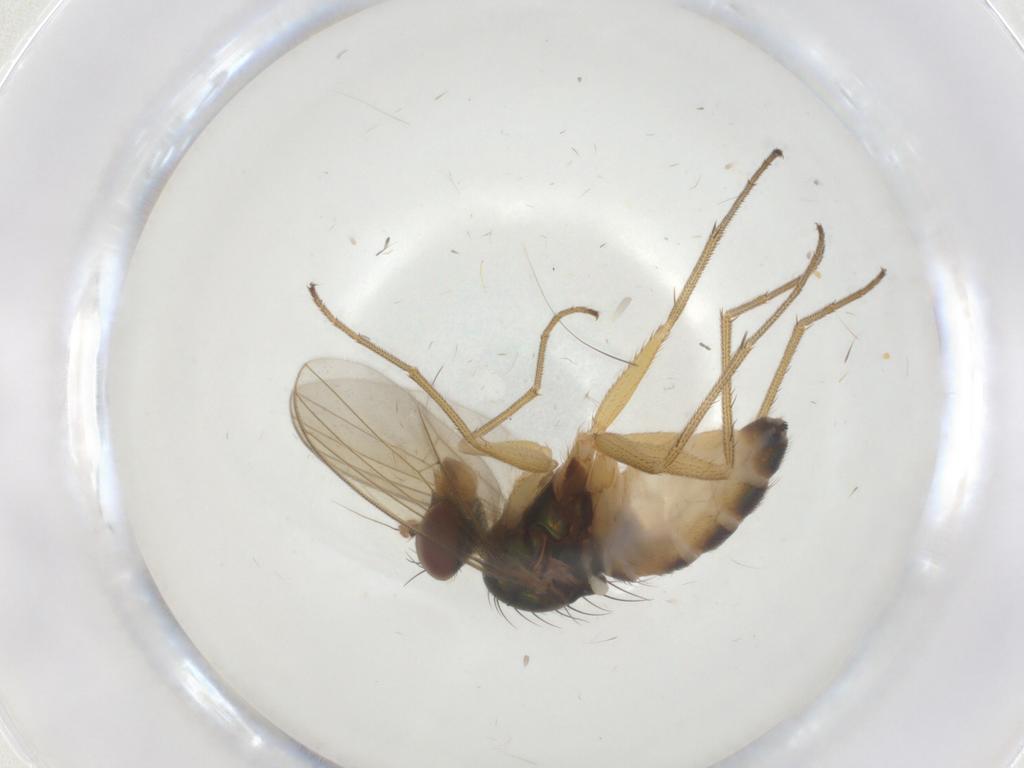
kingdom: Animalia
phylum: Arthropoda
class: Insecta
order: Diptera
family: Dolichopodidae
